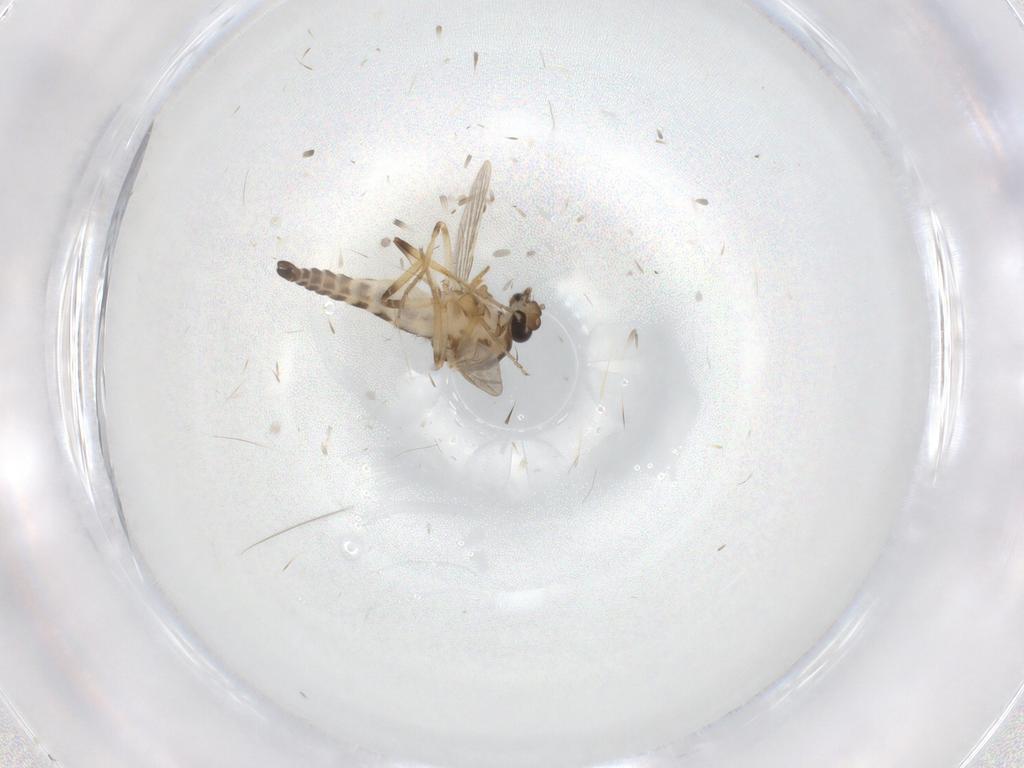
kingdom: Animalia
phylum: Arthropoda
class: Insecta
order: Diptera
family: Ceratopogonidae
